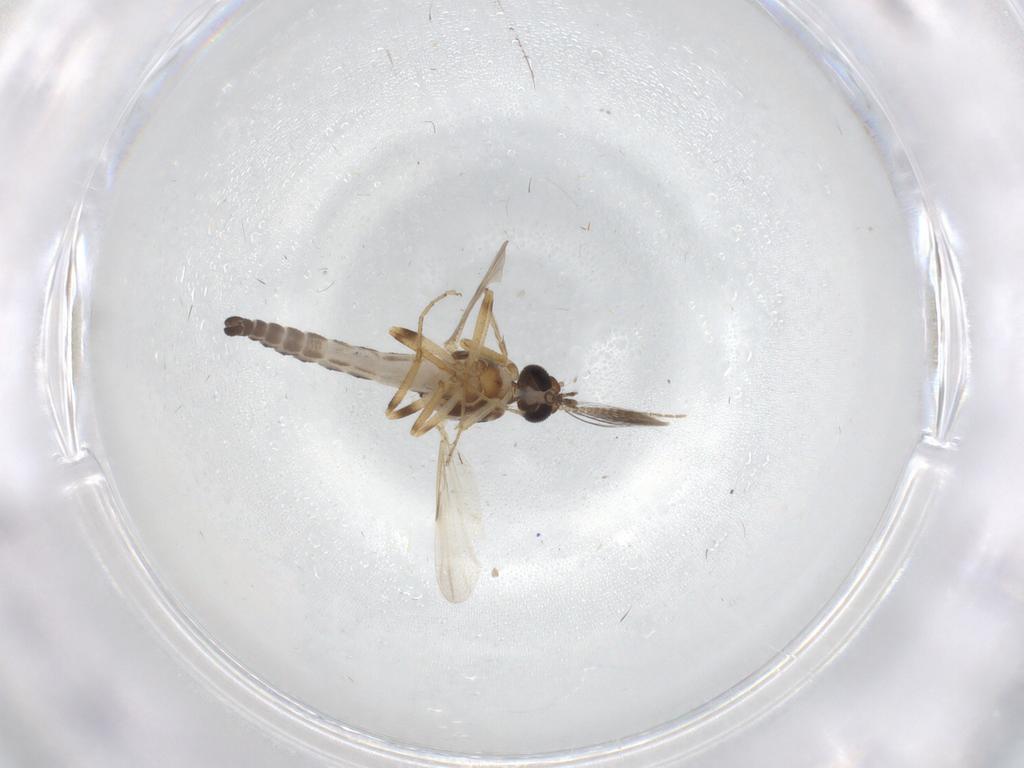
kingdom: Animalia
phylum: Arthropoda
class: Insecta
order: Diptera
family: Ceratopogonidae
